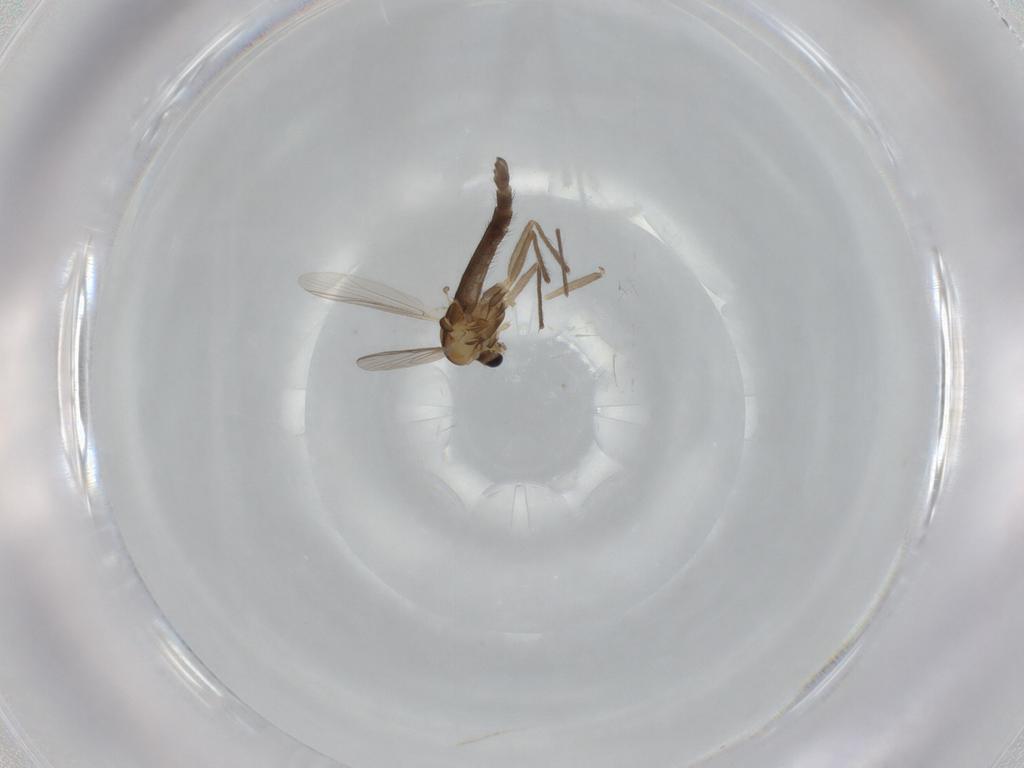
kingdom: Animalia
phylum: Arthropoda
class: Insecta
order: Diptera
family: Chironomidae
